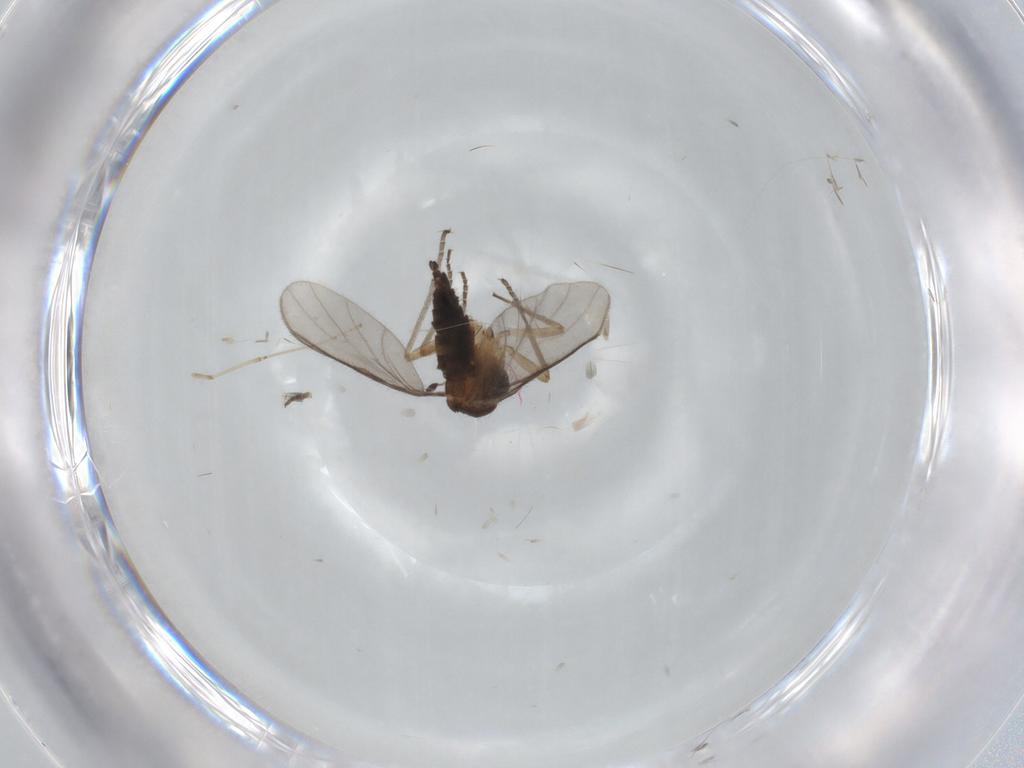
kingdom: Animalia
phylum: Arthropoda
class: Insecta
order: Diptera
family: Sciaridae
